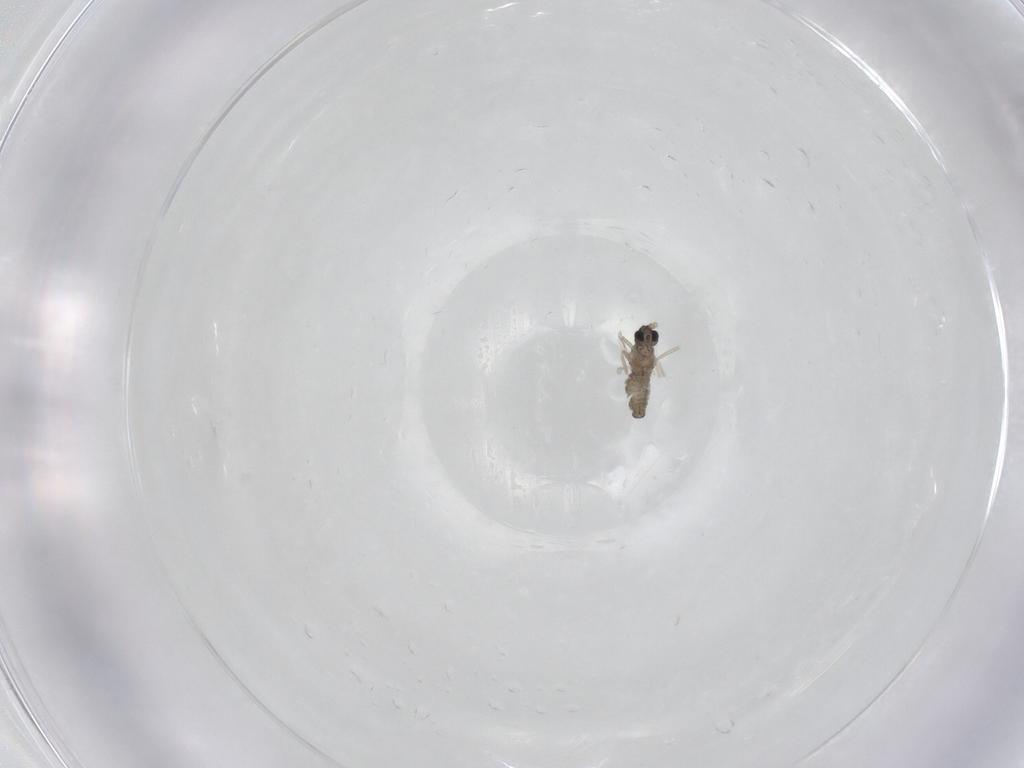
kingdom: Animalia
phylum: Arthropoda
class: Insecta
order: Diptera
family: Cecidomyiidae
